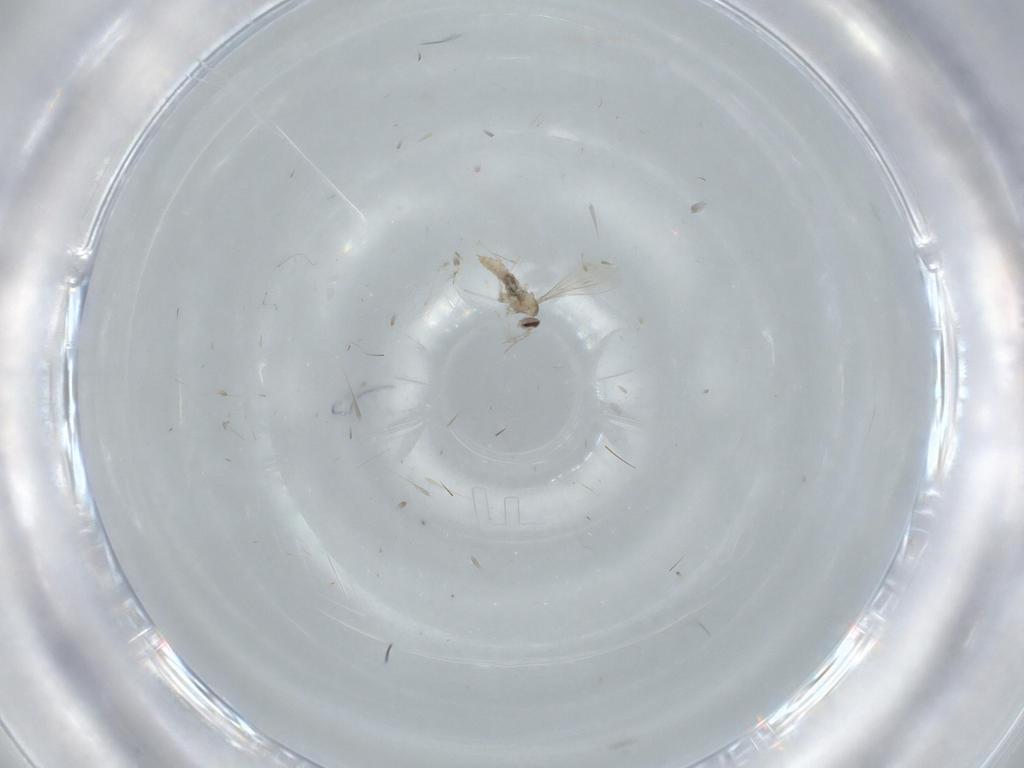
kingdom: Animalia
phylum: Arthropoda
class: Insecta
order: Diptera
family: Cecidomyiidae
